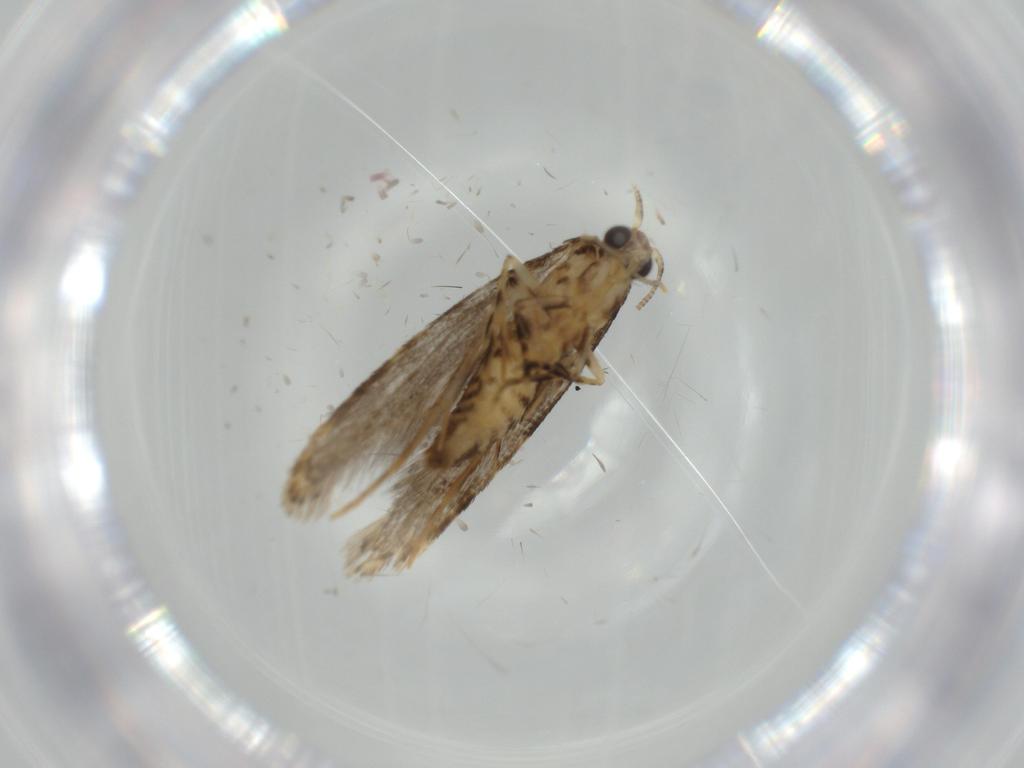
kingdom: Animalia
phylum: Arthropoda
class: Insecta
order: Lepidoptera
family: Tineidae
